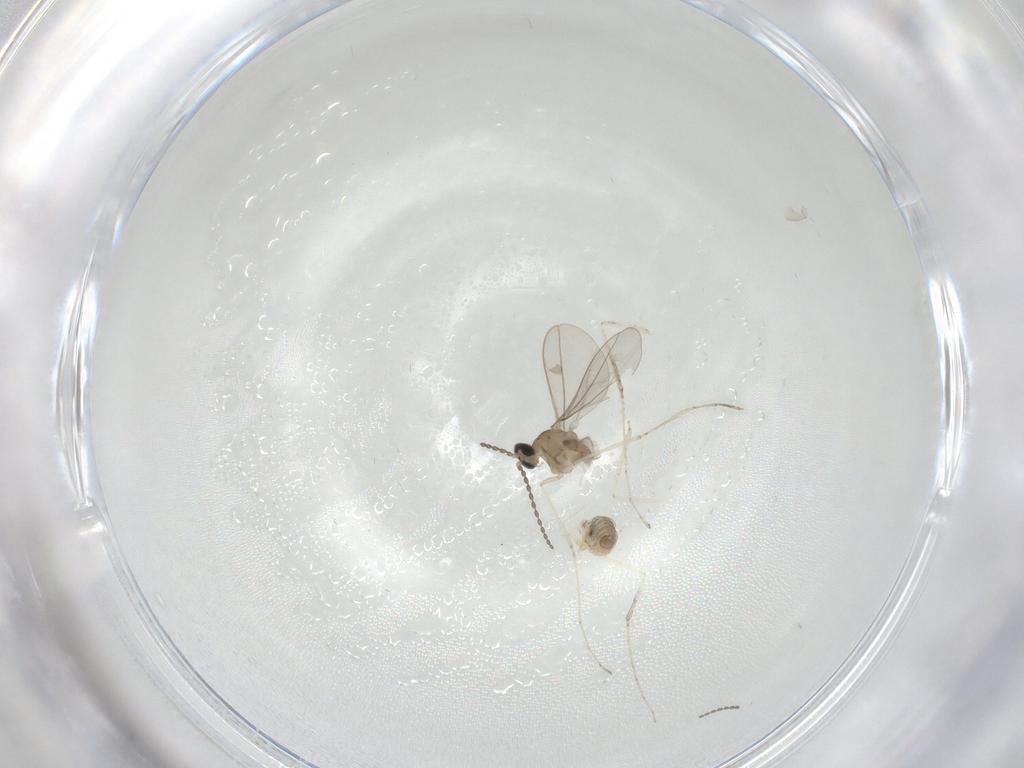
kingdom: Animalia
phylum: Arthropoda
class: Insecta
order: Diptera
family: Cecidomyiidae
